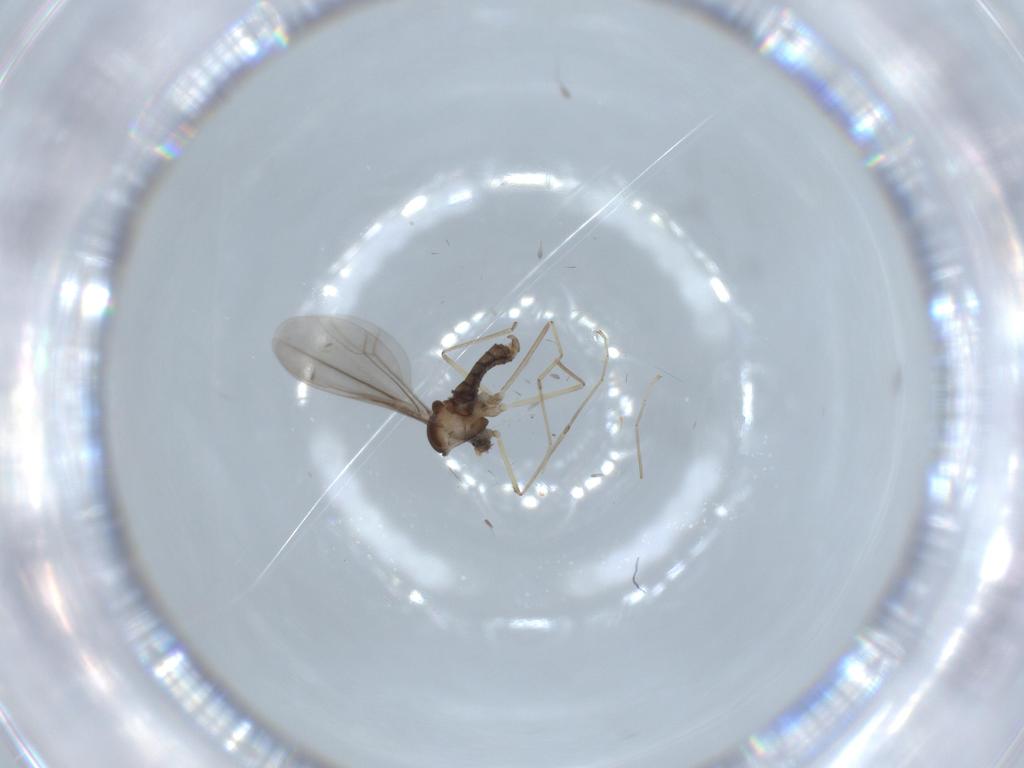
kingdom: Animalia
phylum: Arthropoda
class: Insecta
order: Diptera
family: Cecidomyiidae
